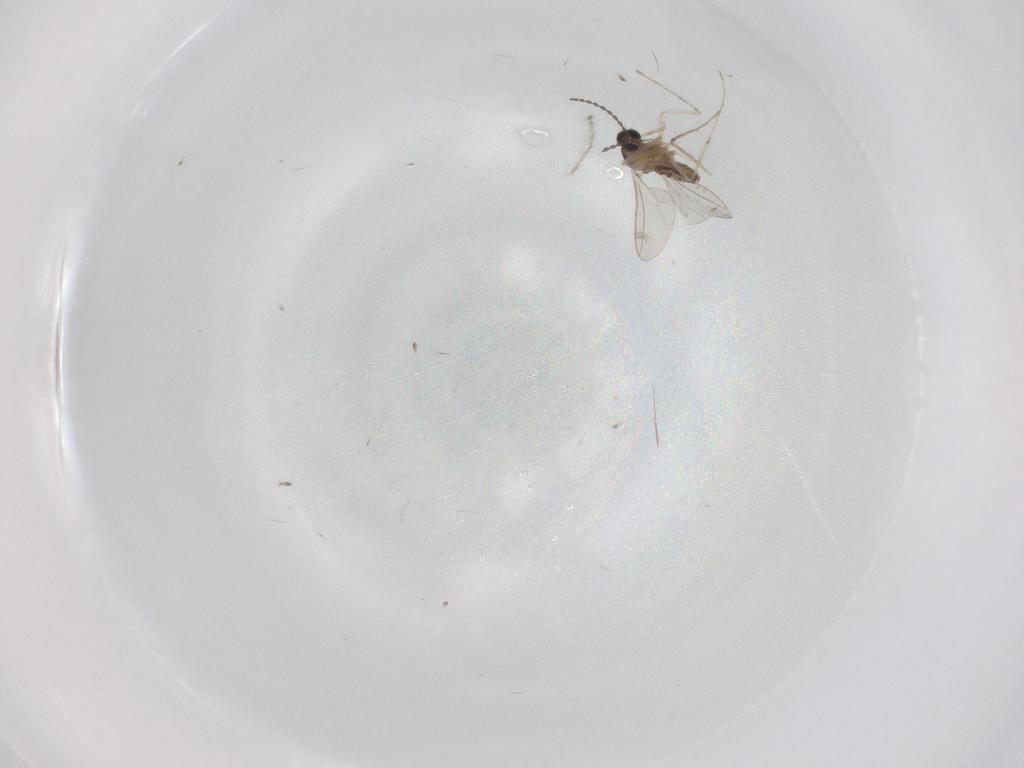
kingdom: Animalia
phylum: Arthropoda
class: Insecta
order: Diptera
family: Cecidomyiidae
